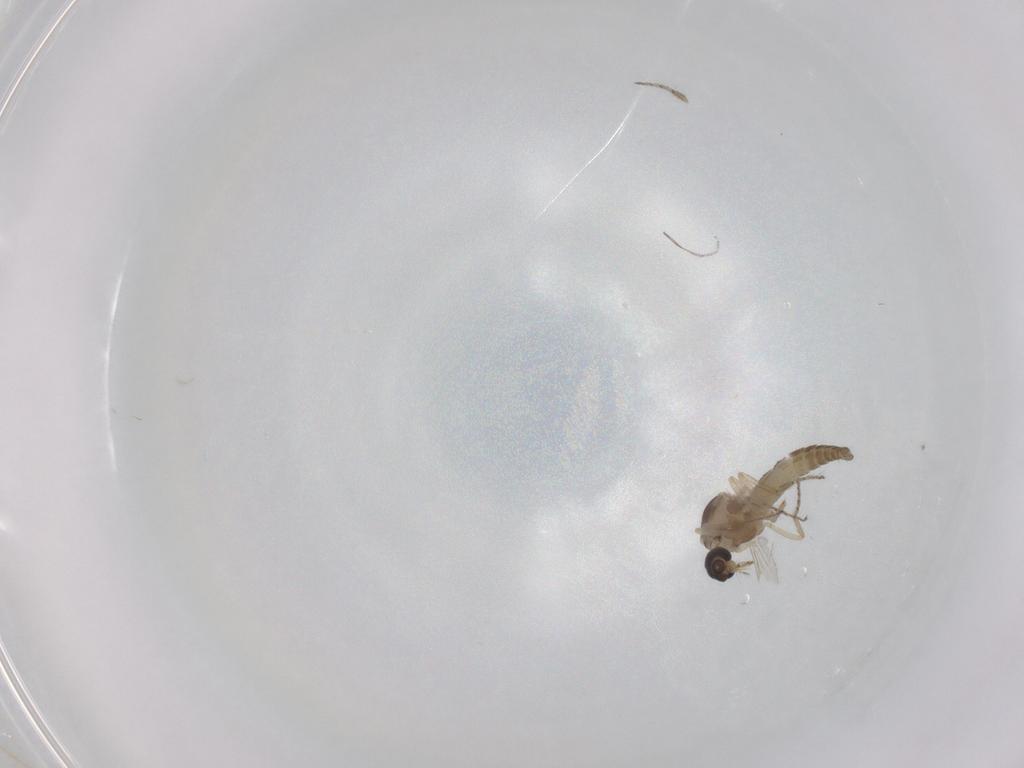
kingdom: Animalia
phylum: Arthropoda
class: Insecta
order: Diptera
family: Ceratopogonidae
